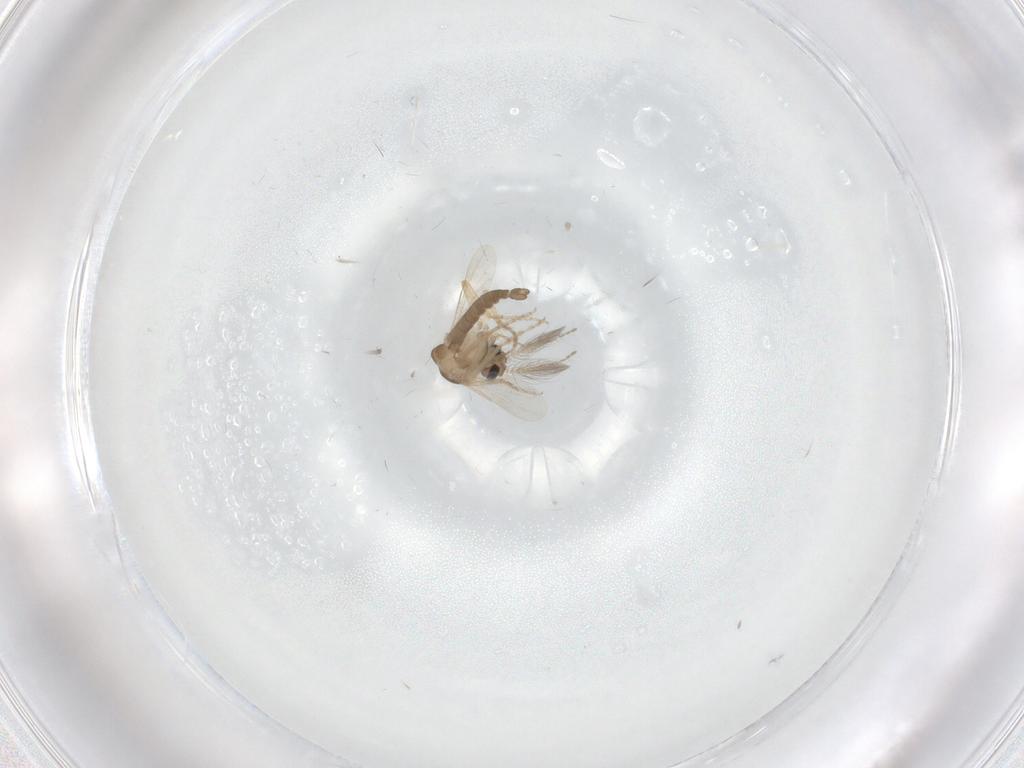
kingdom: Animalia
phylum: Arthropoda
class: Insecta
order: Diptera
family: Ceratopogonidae
